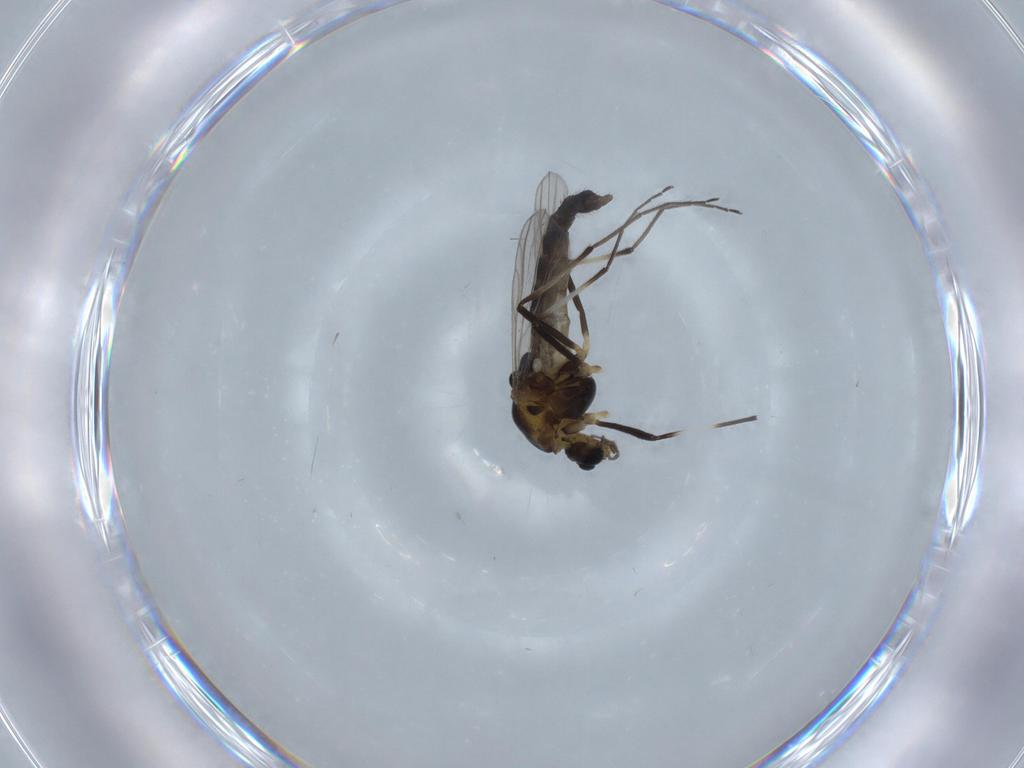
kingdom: Animalia
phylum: Arthropoda
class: Insecta
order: Diptera
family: Chironomidae
